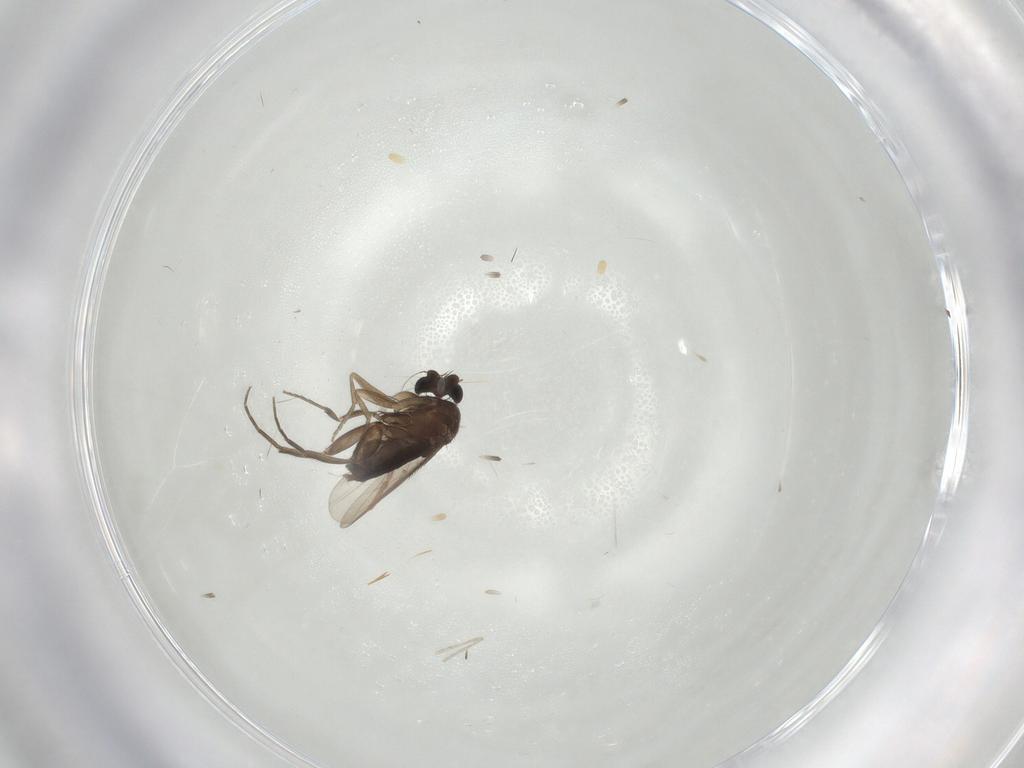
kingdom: Animalia
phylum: Arthropoda
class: Insecta
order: Diptera
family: Phoridae
